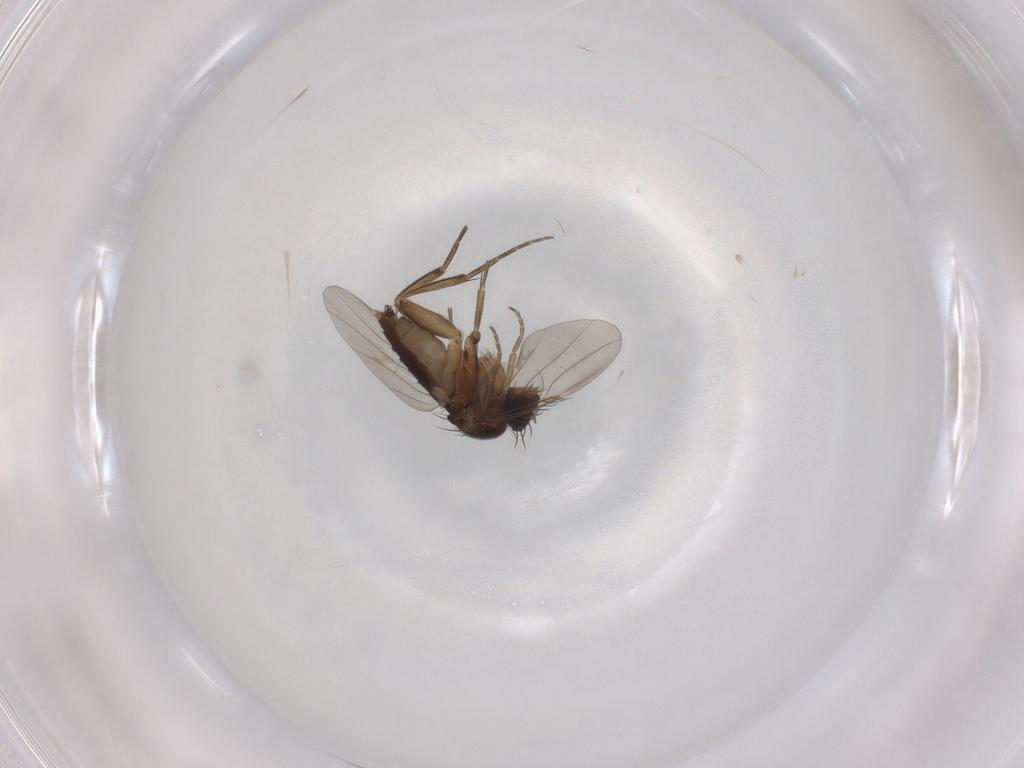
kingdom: Animalia
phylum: Arthropoda
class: Insecta
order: Diptera
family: Phoridae
